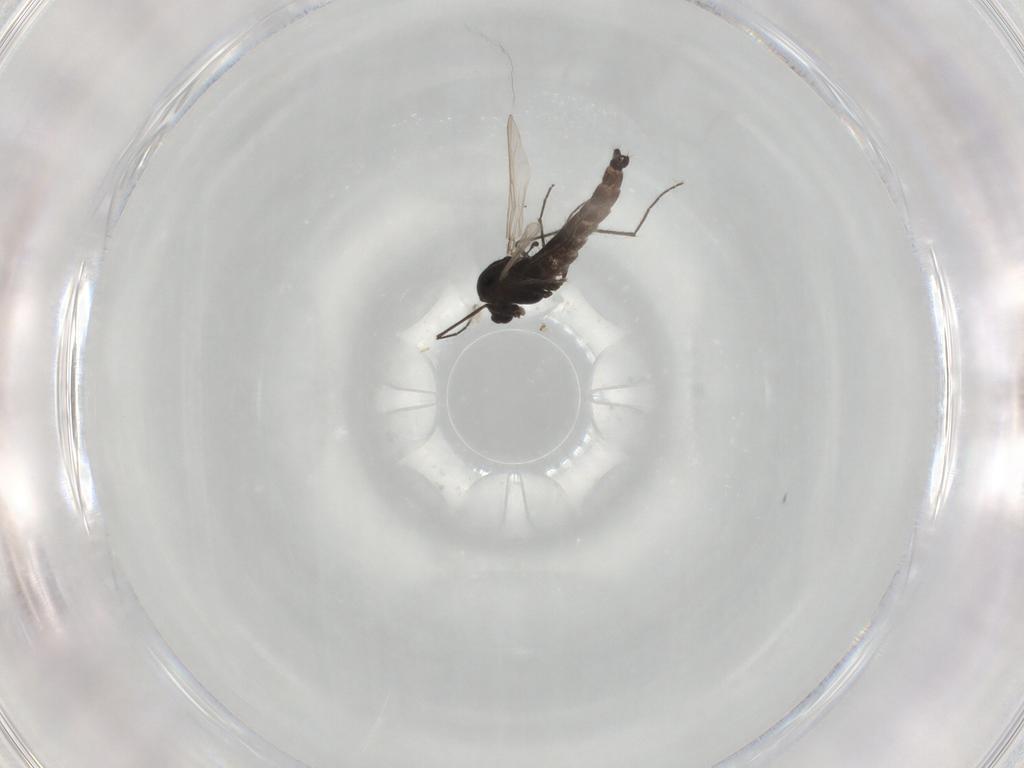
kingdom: Animalia
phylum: Arthropoda
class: Insecta
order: Diptera
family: Chironomidae
